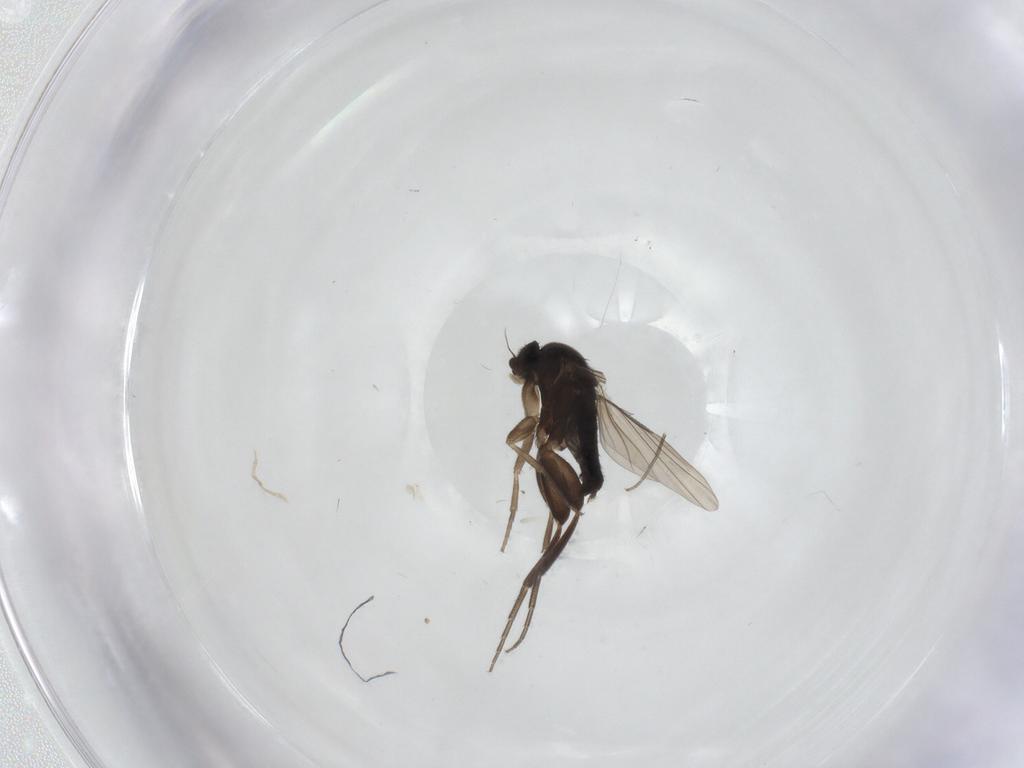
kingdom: Animalia
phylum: Arthropoda
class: Insecta
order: Diptera
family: Phoridae
